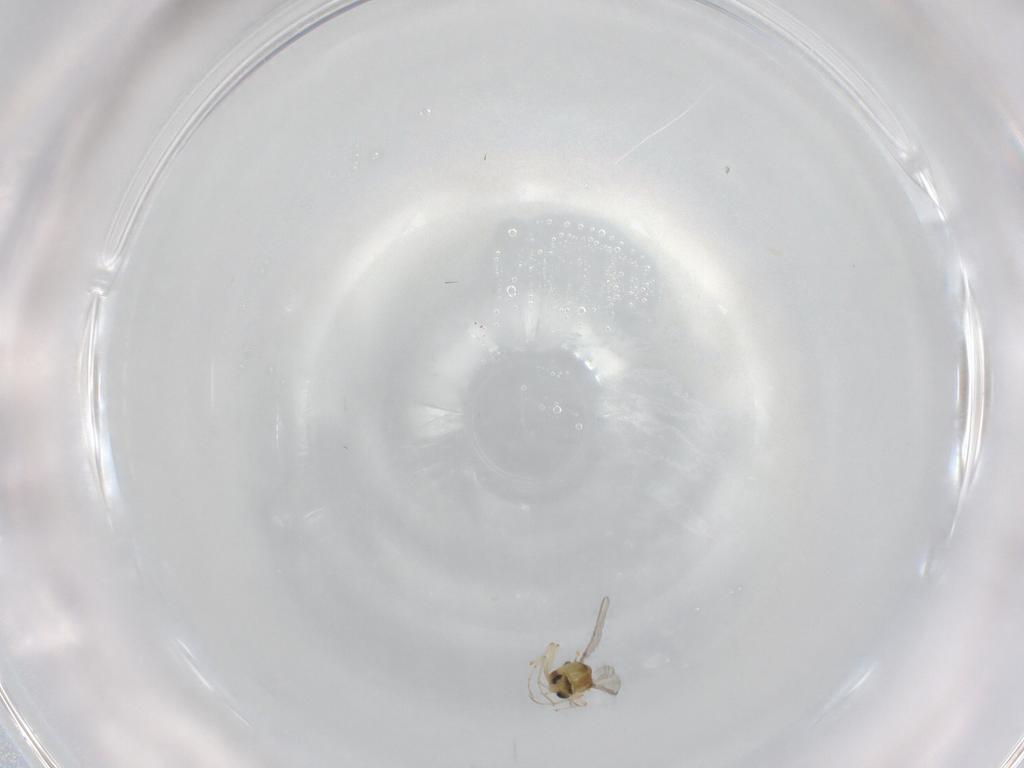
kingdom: Animalia
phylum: Arthropoda
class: Insecta
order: Diptera
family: Chironomidae
